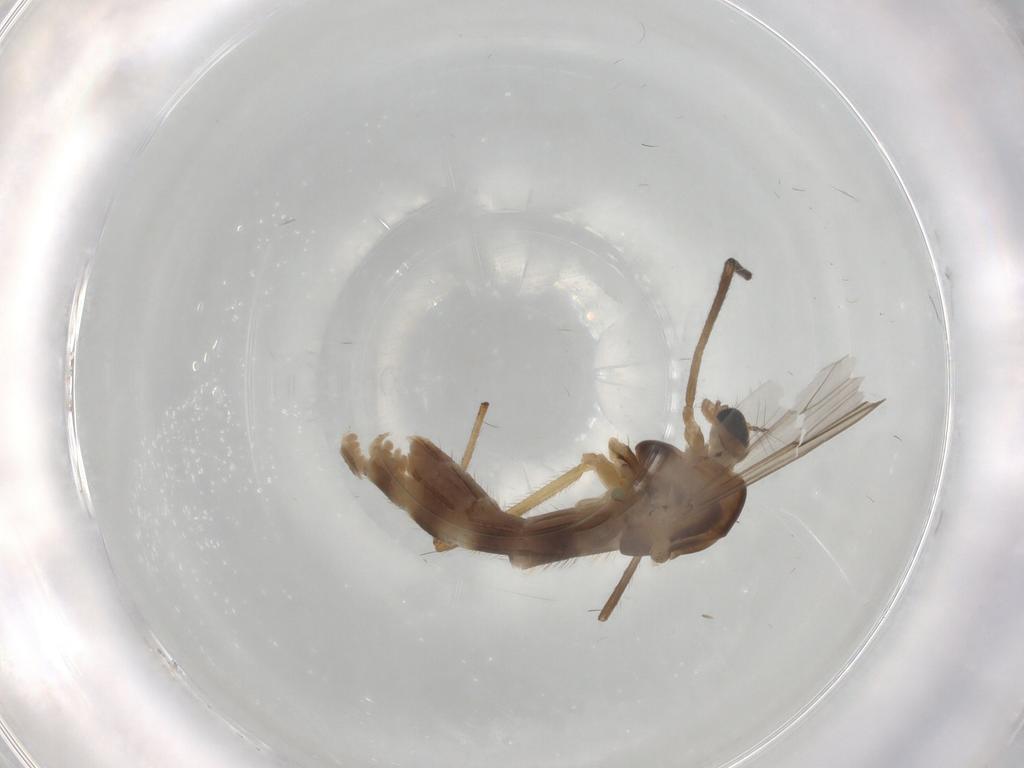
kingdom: Animalia
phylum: Arthropoda
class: Insecta
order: Diptera
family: Chironomidae
